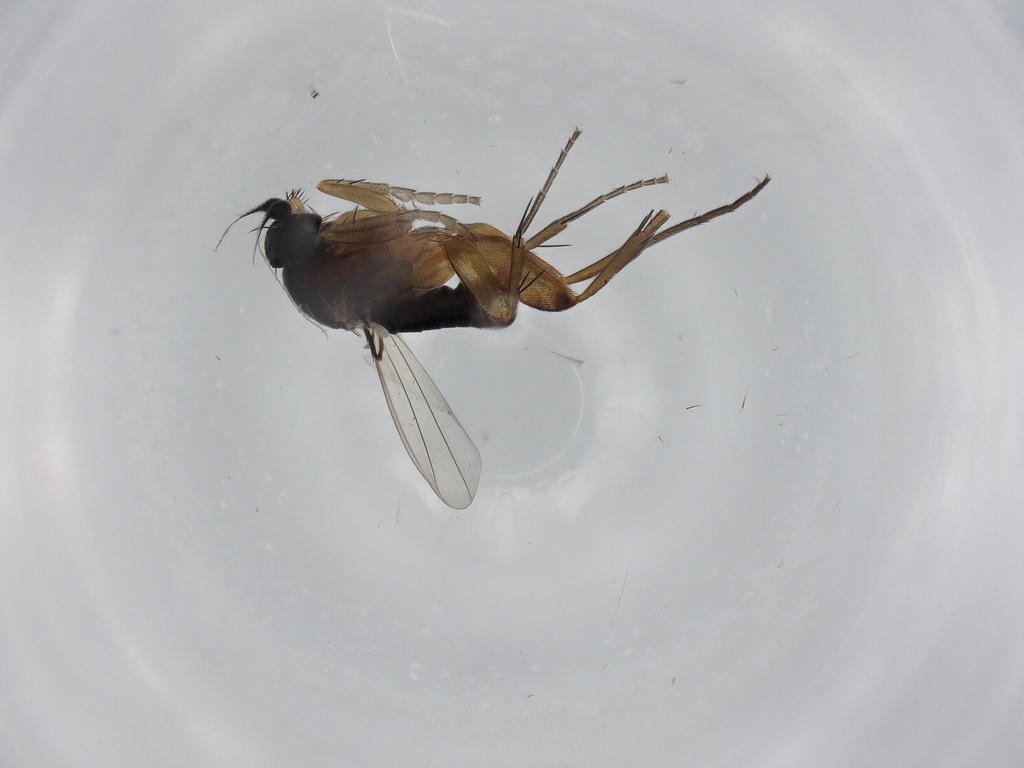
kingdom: Animalia
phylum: Arthropoda
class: Insecta
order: Diptera
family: Phoridae
